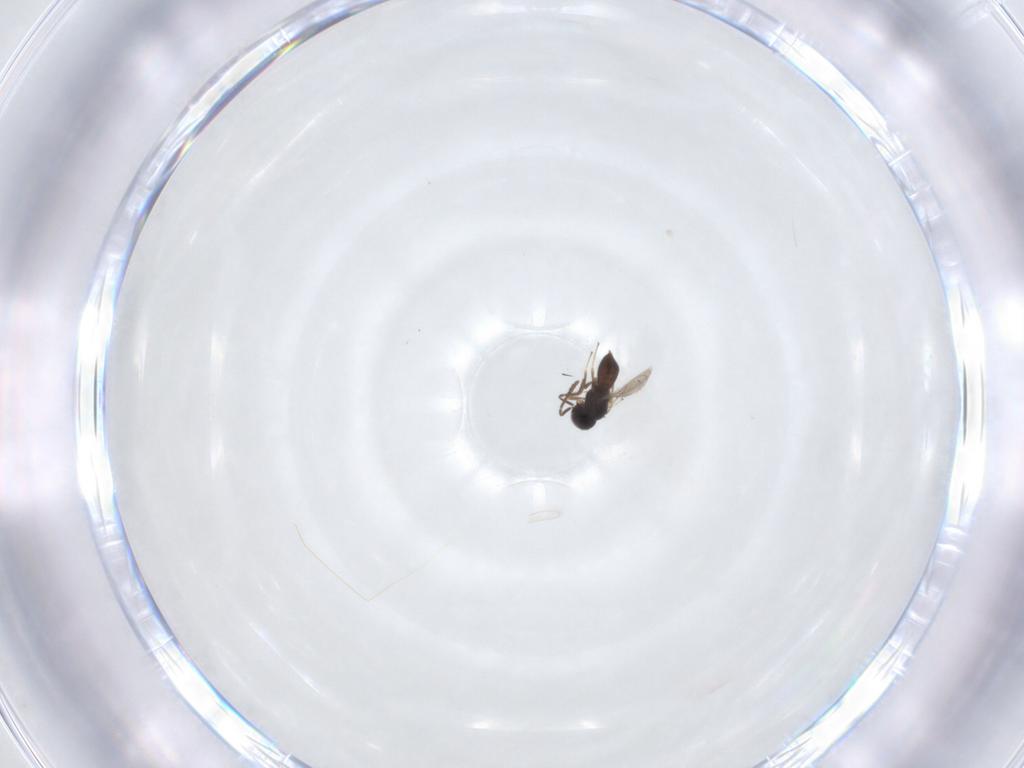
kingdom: Animalia
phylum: Arthropoda
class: Insecta
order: Hymenoptera
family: Scelionidae
